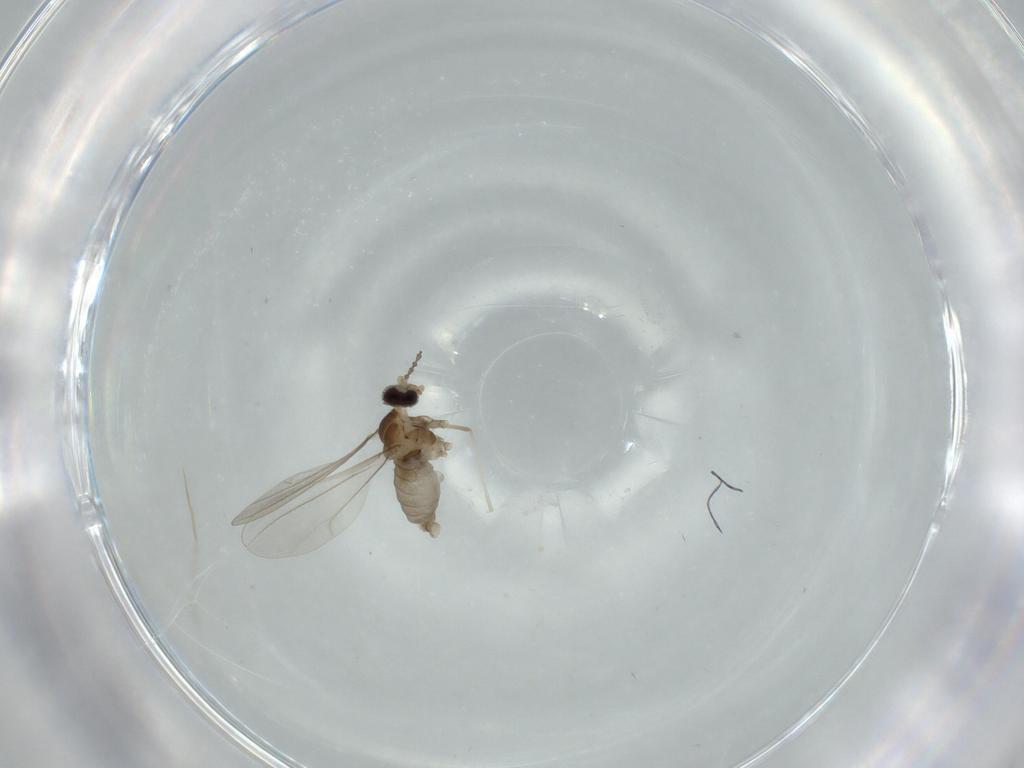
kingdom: Animalia
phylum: Arthropoda
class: Insecta
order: Diptera
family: Cecidomyiidae
